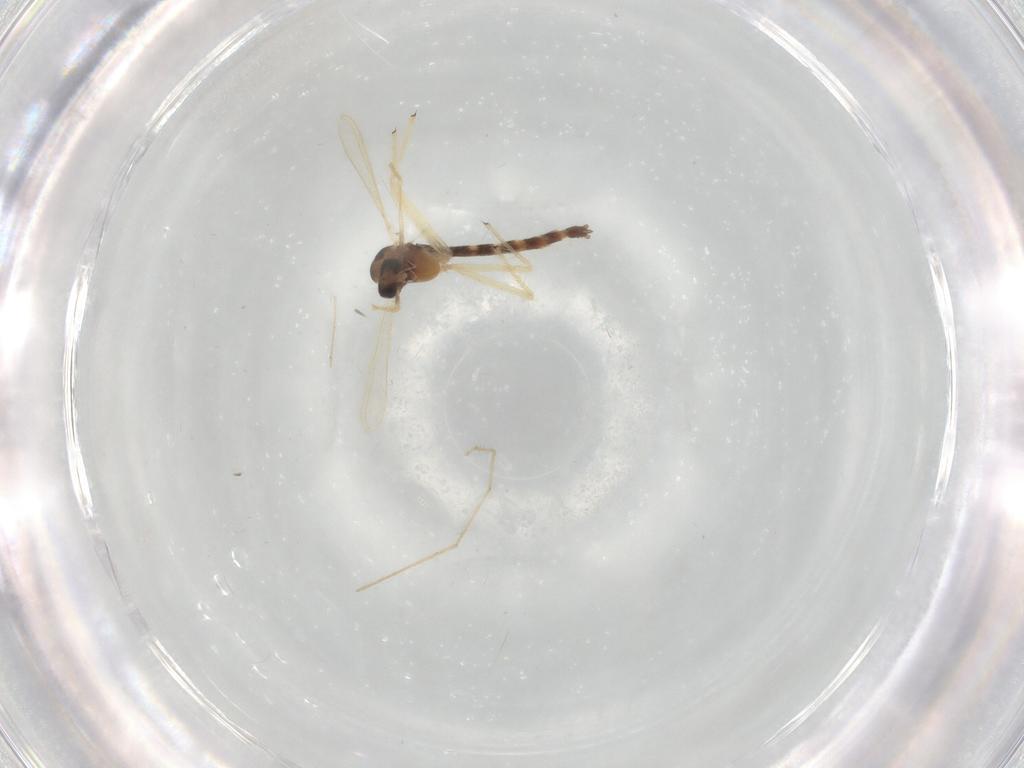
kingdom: Animalia
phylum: Arthropoda
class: Insecta
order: Diptera
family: Chironomidae
